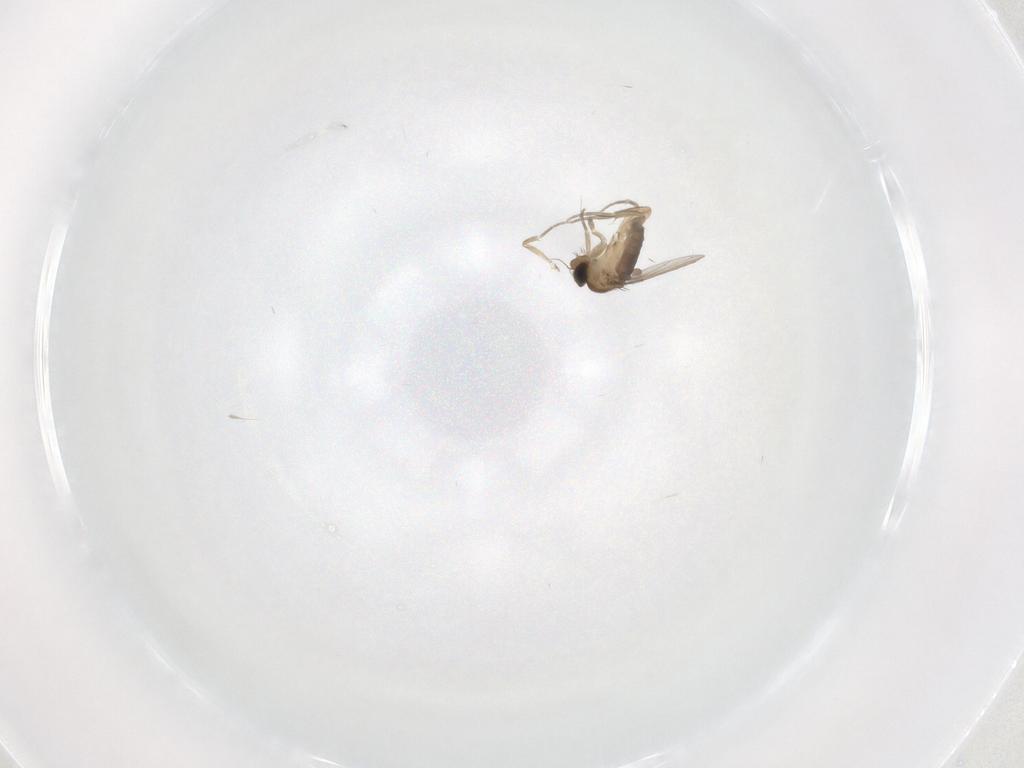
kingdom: Animalia
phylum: Arthropoda
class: Insecta
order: Diptera
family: Phoridae
